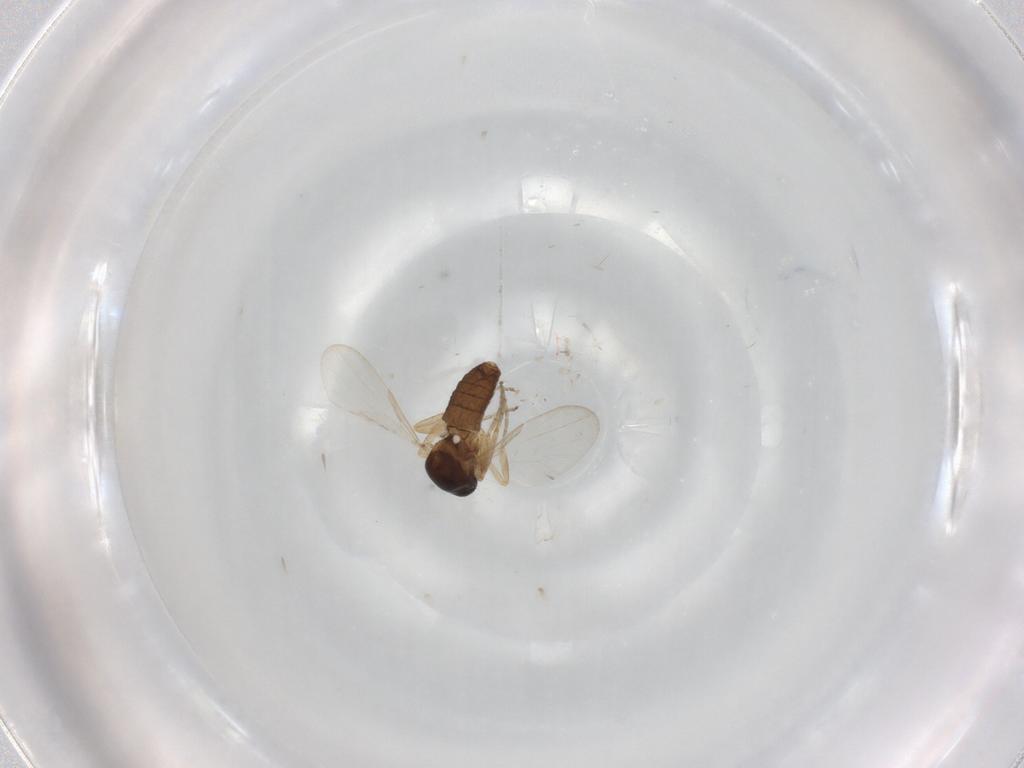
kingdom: Animalia
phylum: Arthropoda
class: Insecta
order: Diptera
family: Ceratopogonidae
